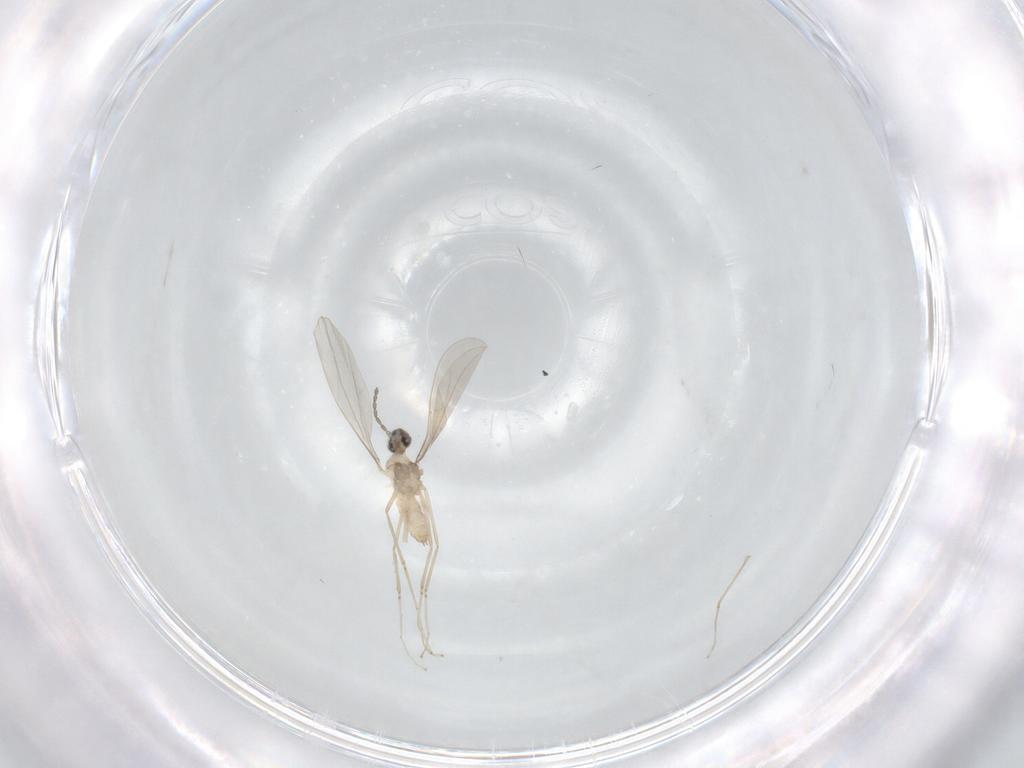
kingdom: Animalia
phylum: Arthropoda
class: Insecta
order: Diptera
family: Cecidomyiidae
